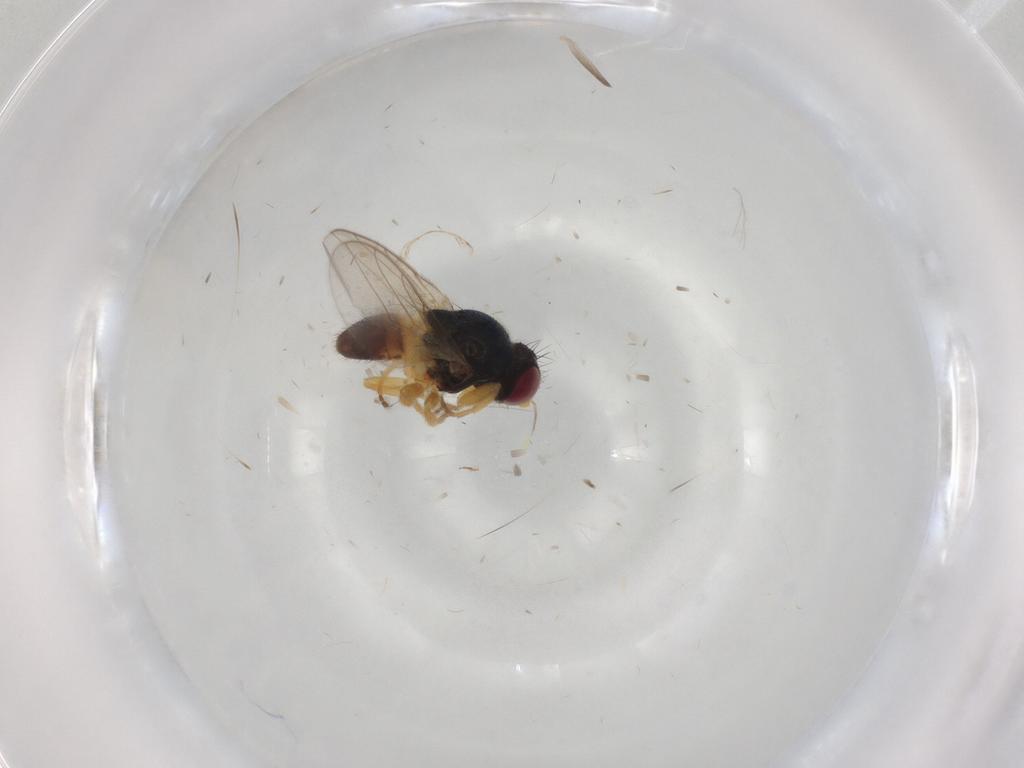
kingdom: Animalia
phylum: Arthropoda
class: Insecta
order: Diptera
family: Chloropidae
